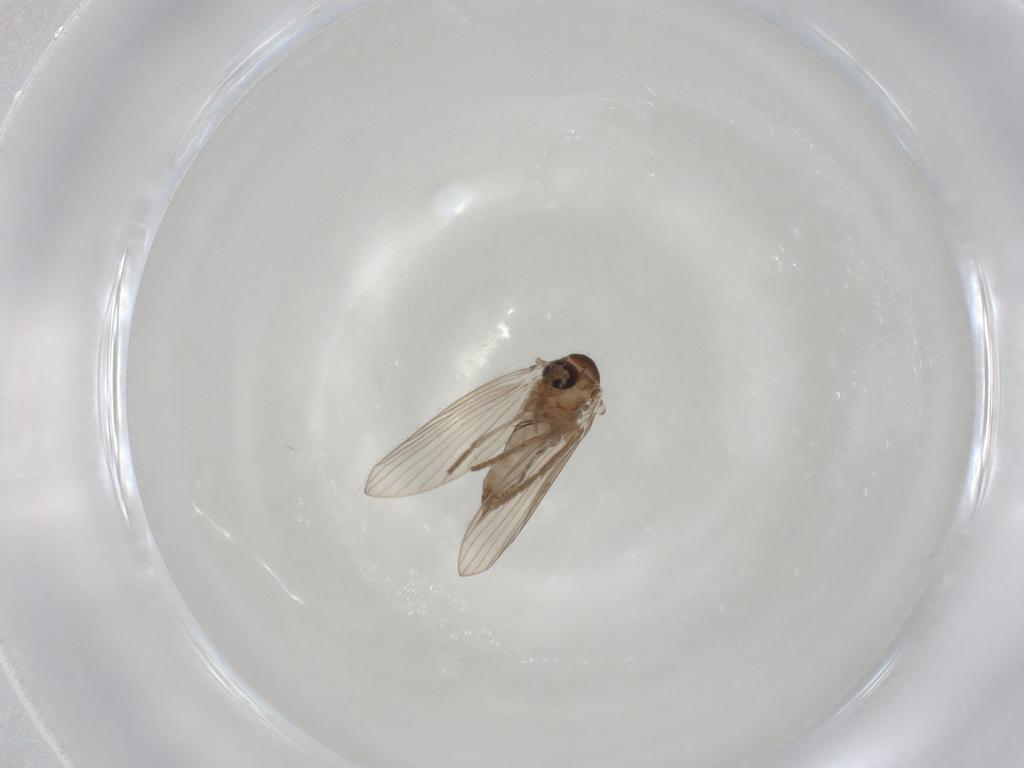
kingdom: Animalia
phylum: Arthropoda
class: Insecta
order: Diptera
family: Psychodidae
